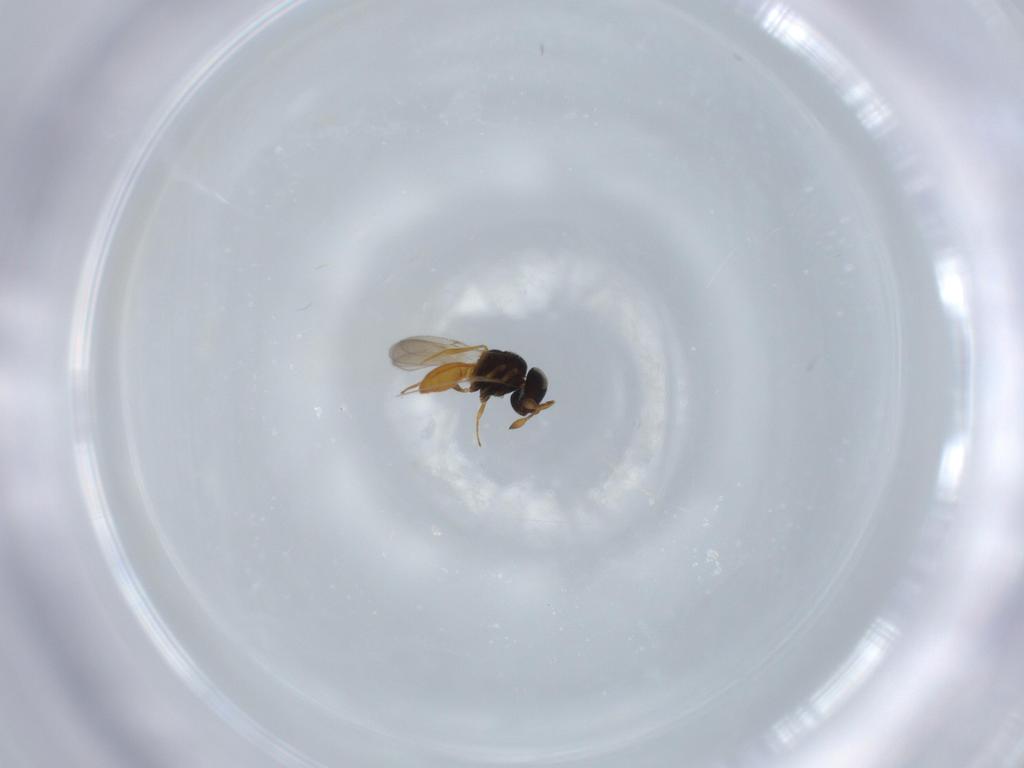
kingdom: Animalia
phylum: Arthropoda
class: Insecta
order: Hymenoptera
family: Scelionidae
